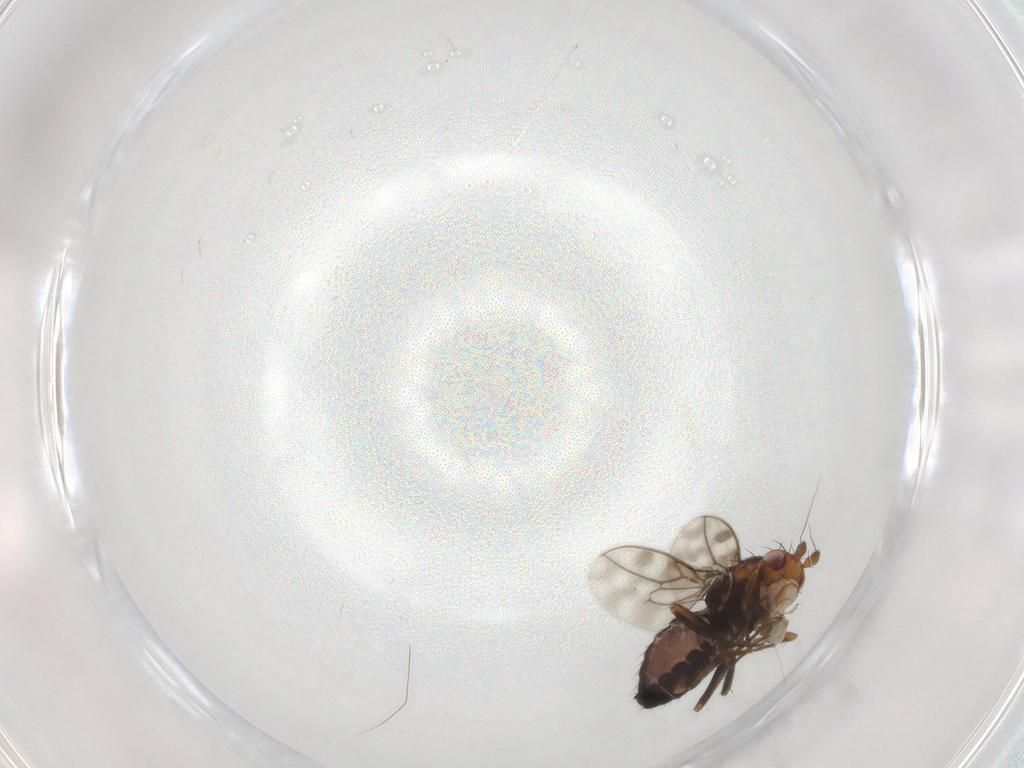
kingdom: Animalia
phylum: Arthropoda
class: Insecta
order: Diptera
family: Sphaeroceridae
